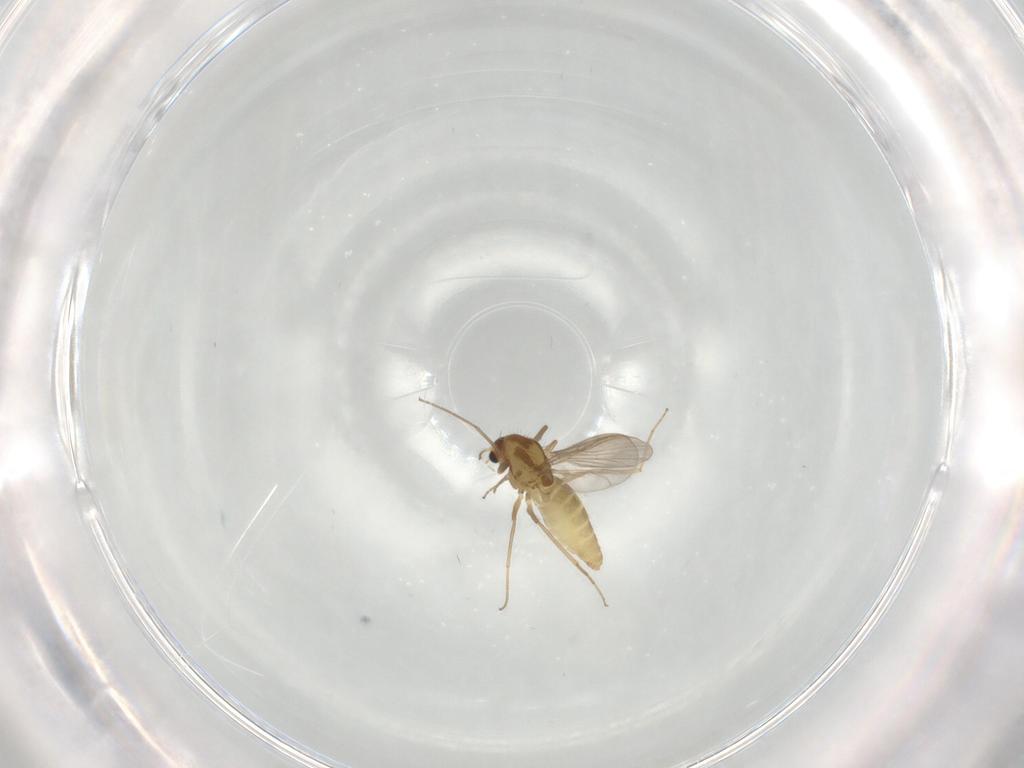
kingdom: Animalia
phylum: Arthropoda
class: Insecta
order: Diptera
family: Chironomidae
